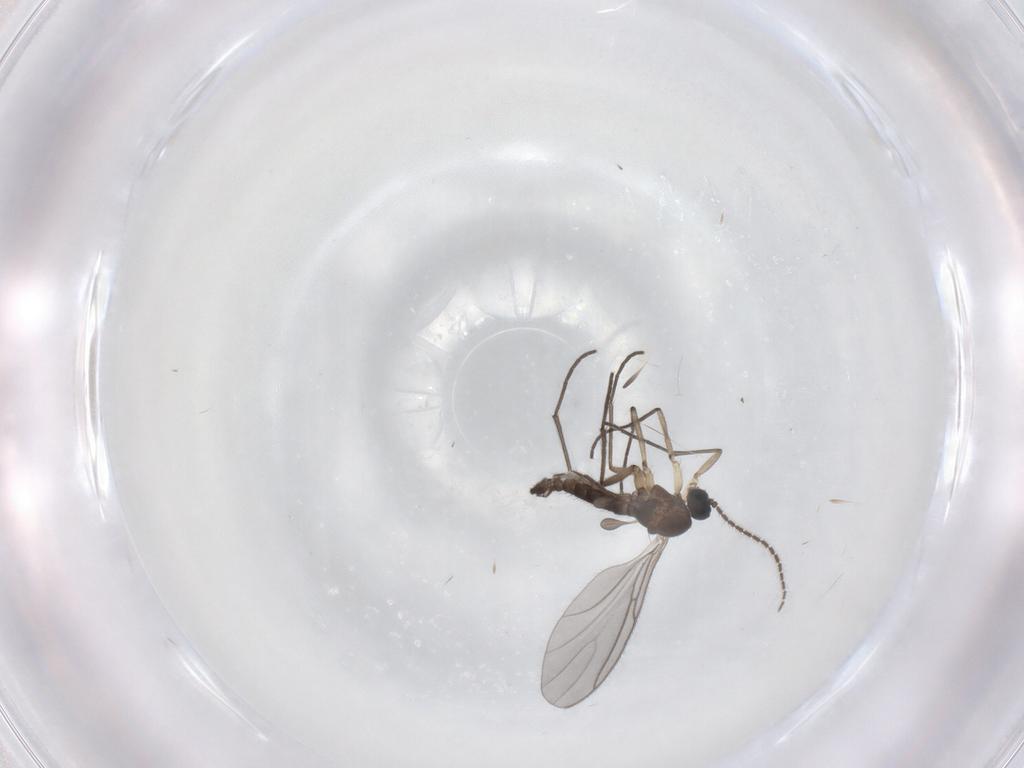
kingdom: Animalia
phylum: Arthropoda
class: Insecta
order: Diptera
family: Sciaridae
